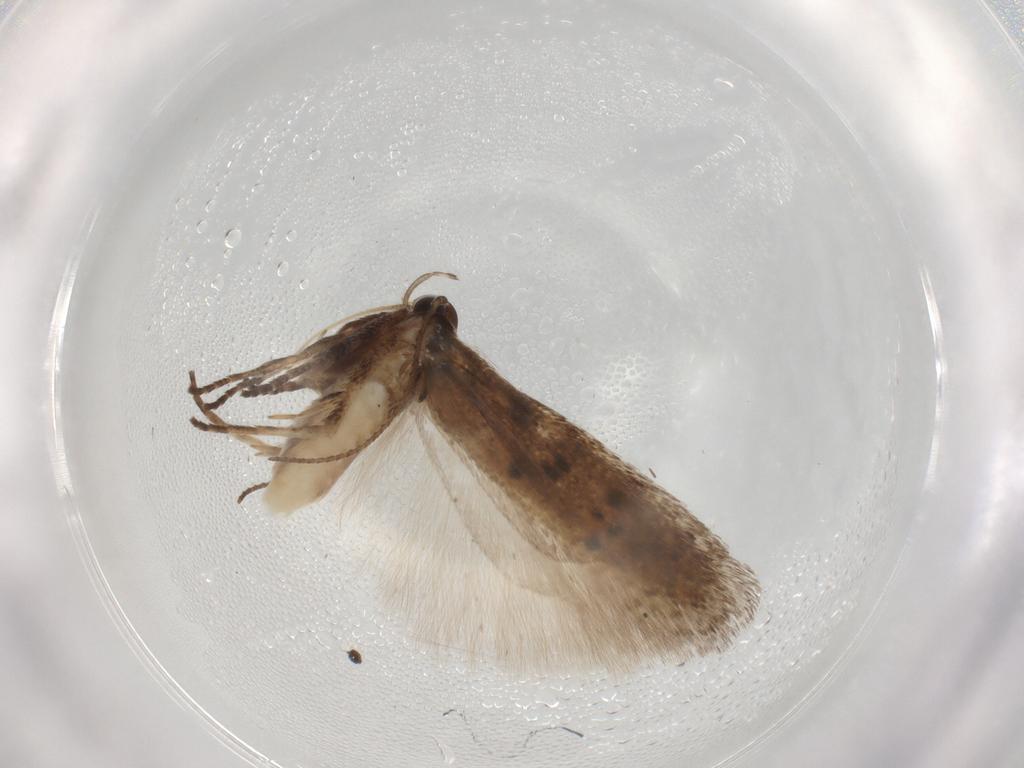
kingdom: Animalia
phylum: Arthropoda
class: Insecta
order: Lepidoptera
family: Gelechiidae
